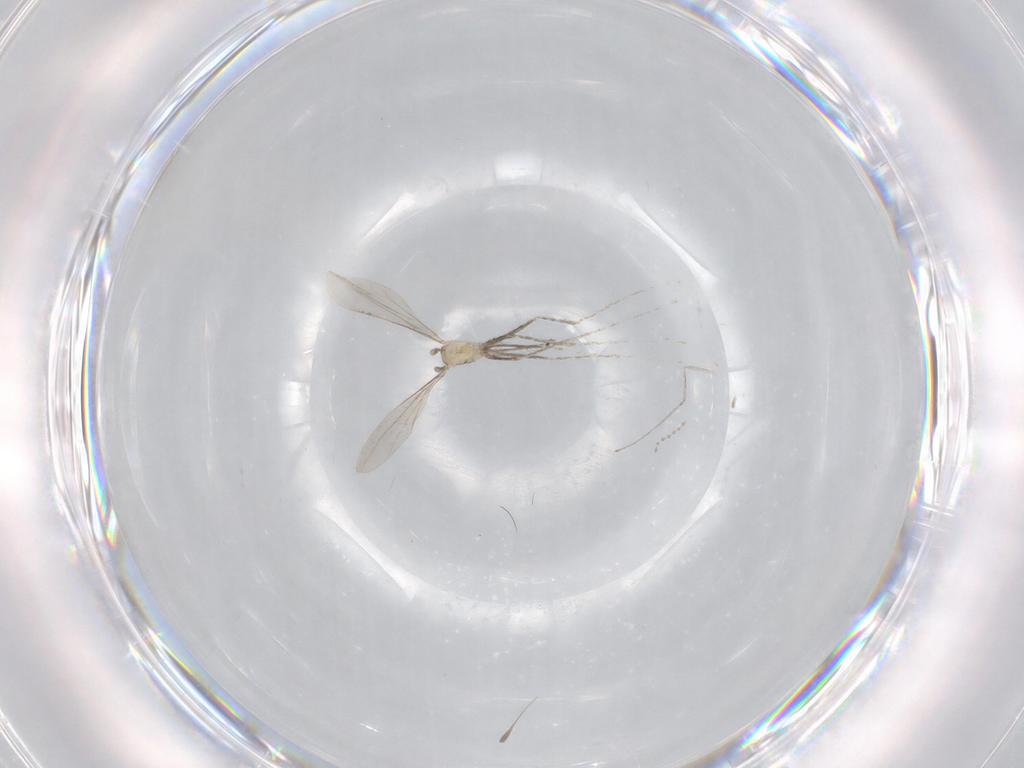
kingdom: Animalia
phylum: Arthropoda
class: Insecta
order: Diptera
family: Cecidomyiidae
